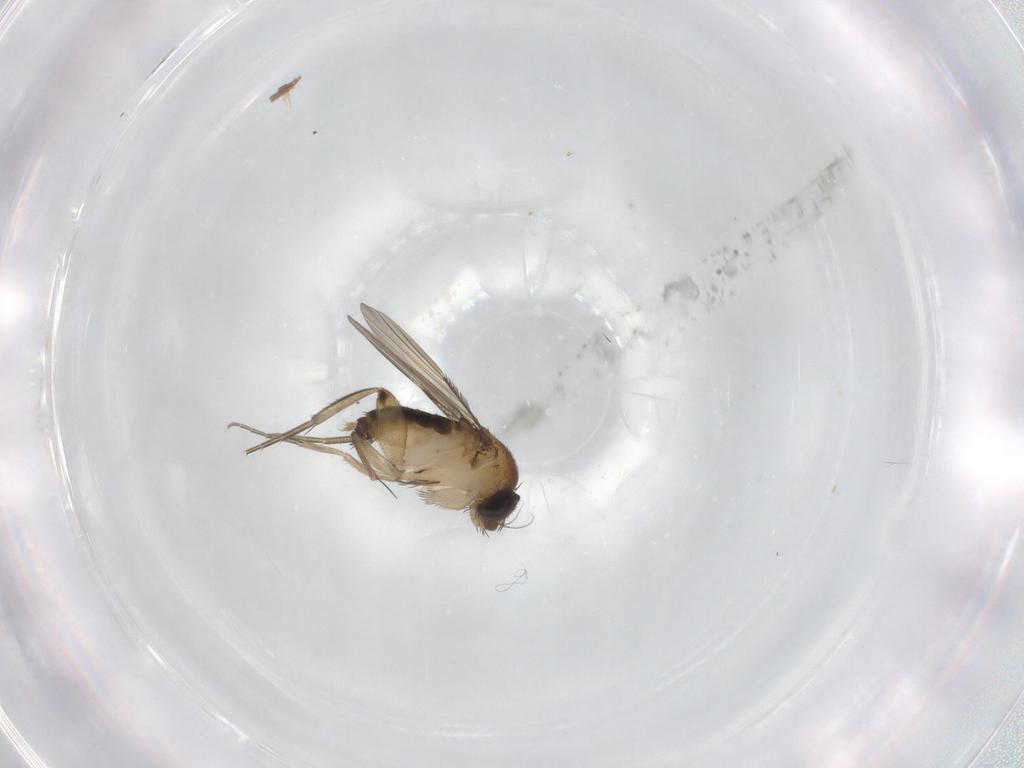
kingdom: Animalia
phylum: Arthropoda
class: Insecta
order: Diptera
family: Phoridae
